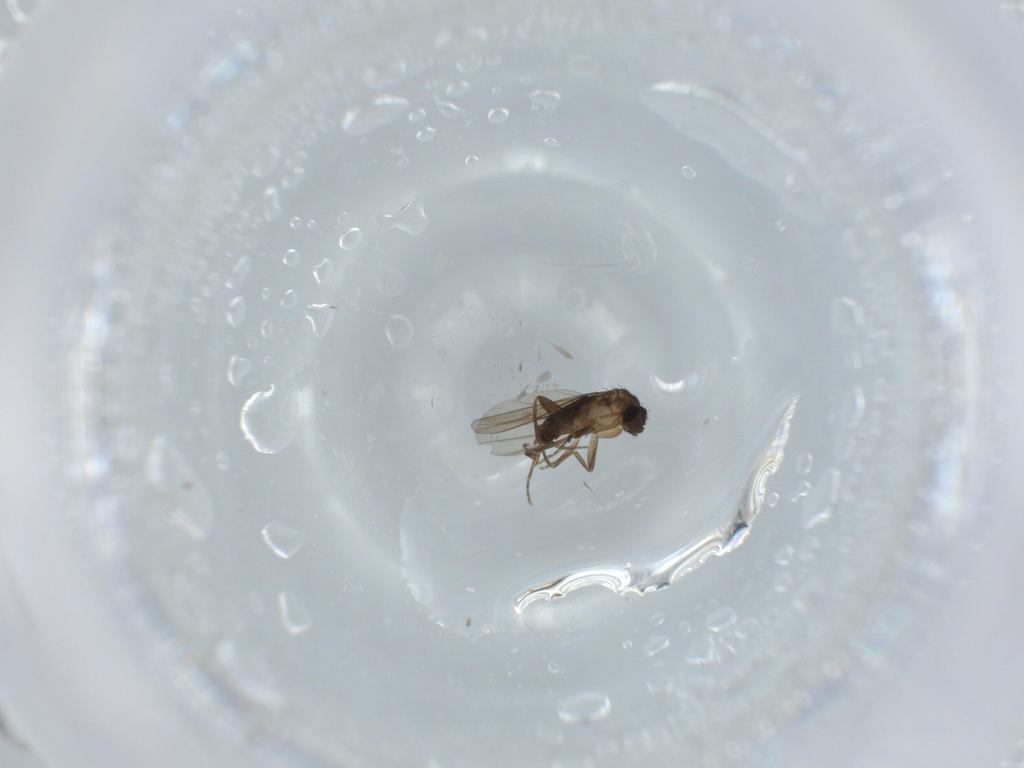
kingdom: Animalia
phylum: Arthropoda
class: Insecta
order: Diptera
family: Phoridae
